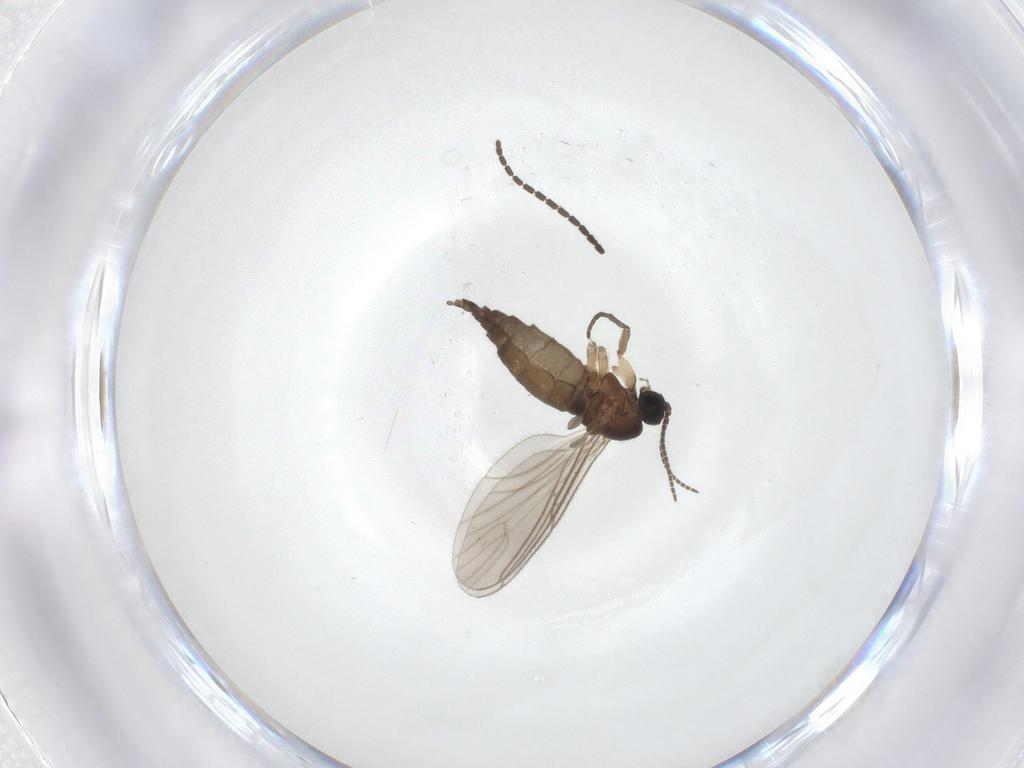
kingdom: Animalia
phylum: Arthropoda
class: Insecta
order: Diptera
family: Sciaridae
